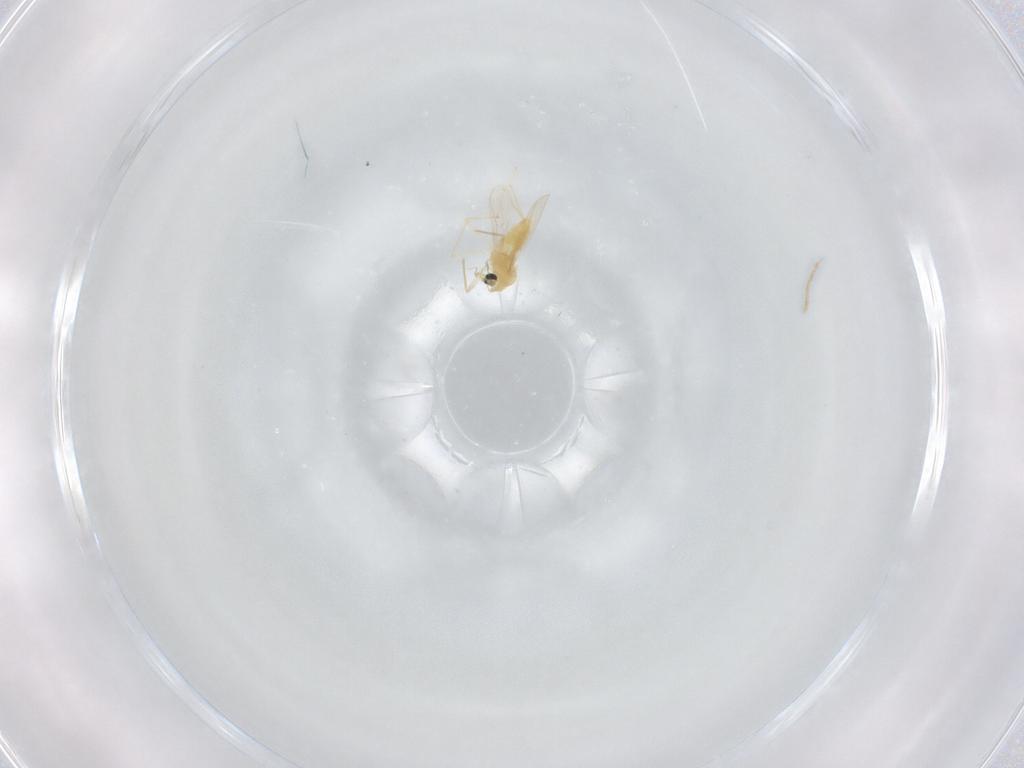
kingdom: Animalia
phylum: Arthropoda
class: Insecta
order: Diptera
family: Chironomidae
